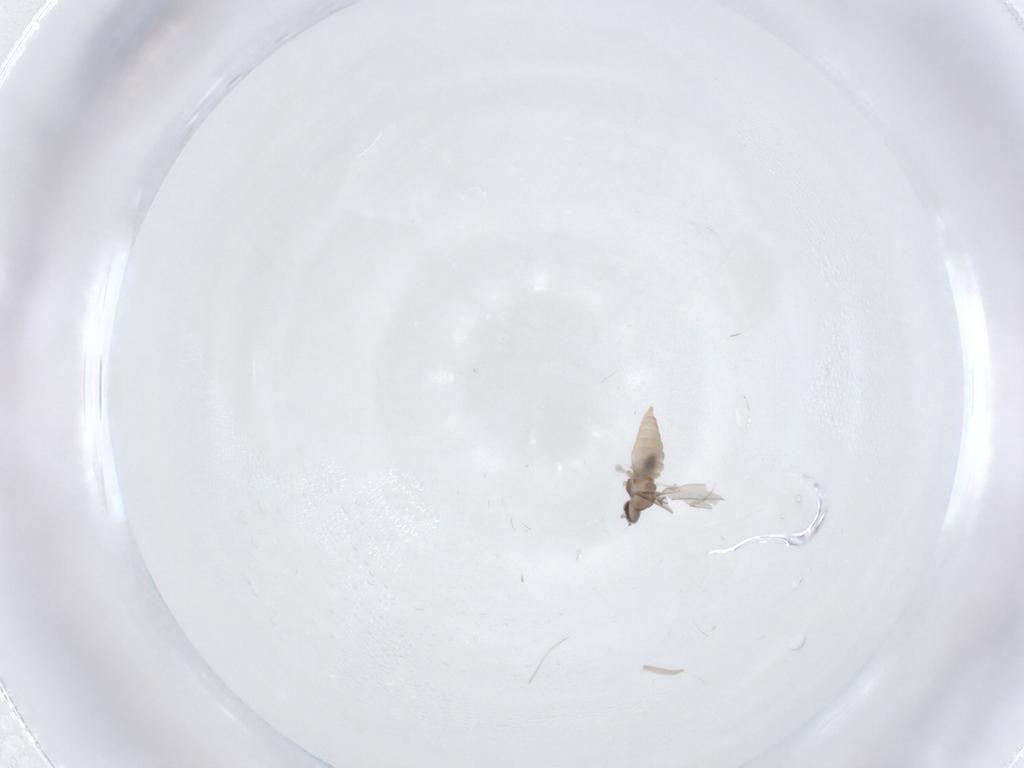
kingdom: Animalia
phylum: Arthropoda
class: Insecta
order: Diptera
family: Cecidomyiidae
